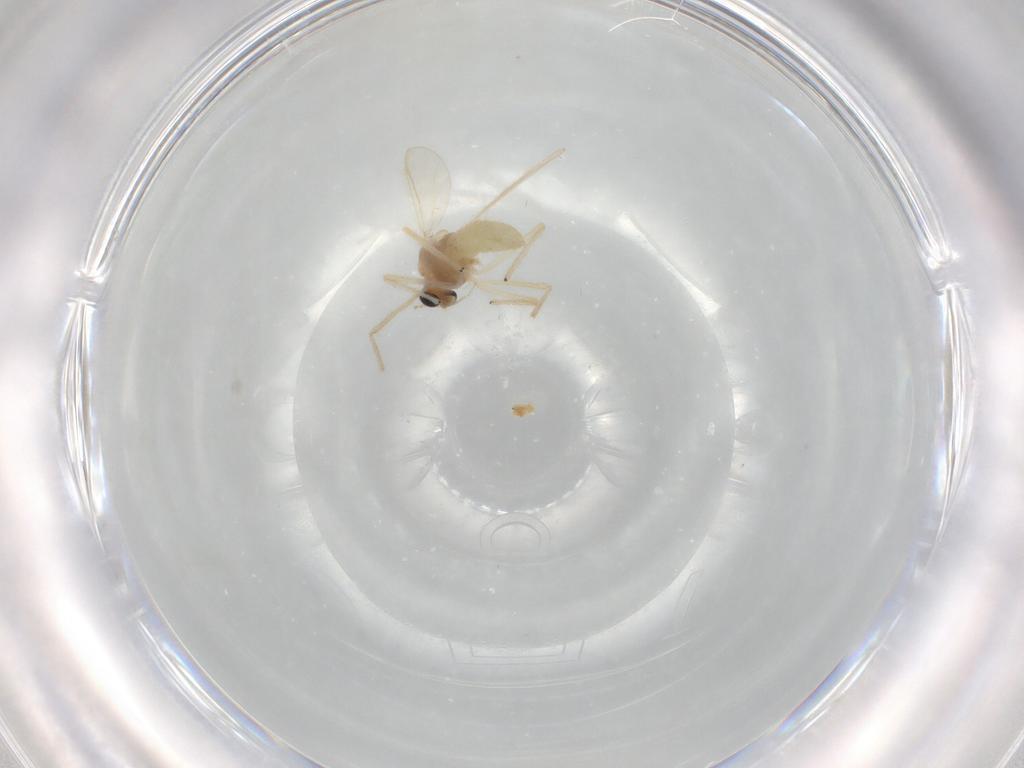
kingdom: Animalia
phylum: Arthropoda
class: Insecta
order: Diptera
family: Chironomidae
